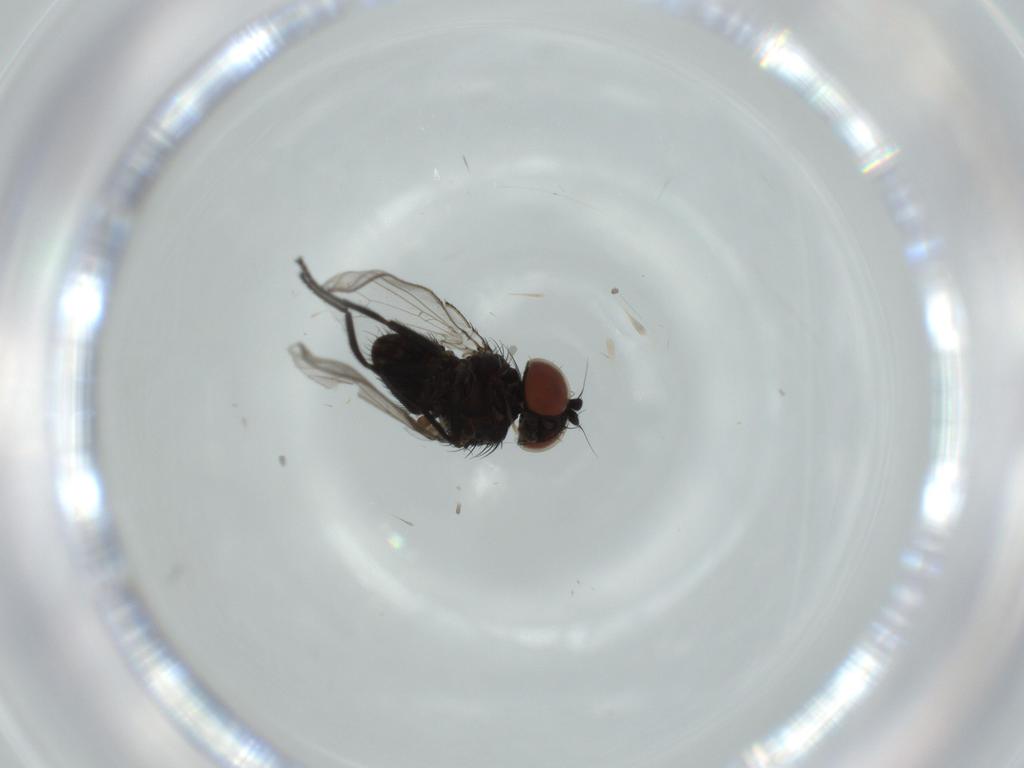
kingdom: Animalia
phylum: Arthropoda
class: Insecta
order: Diptera
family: Milichiidae
